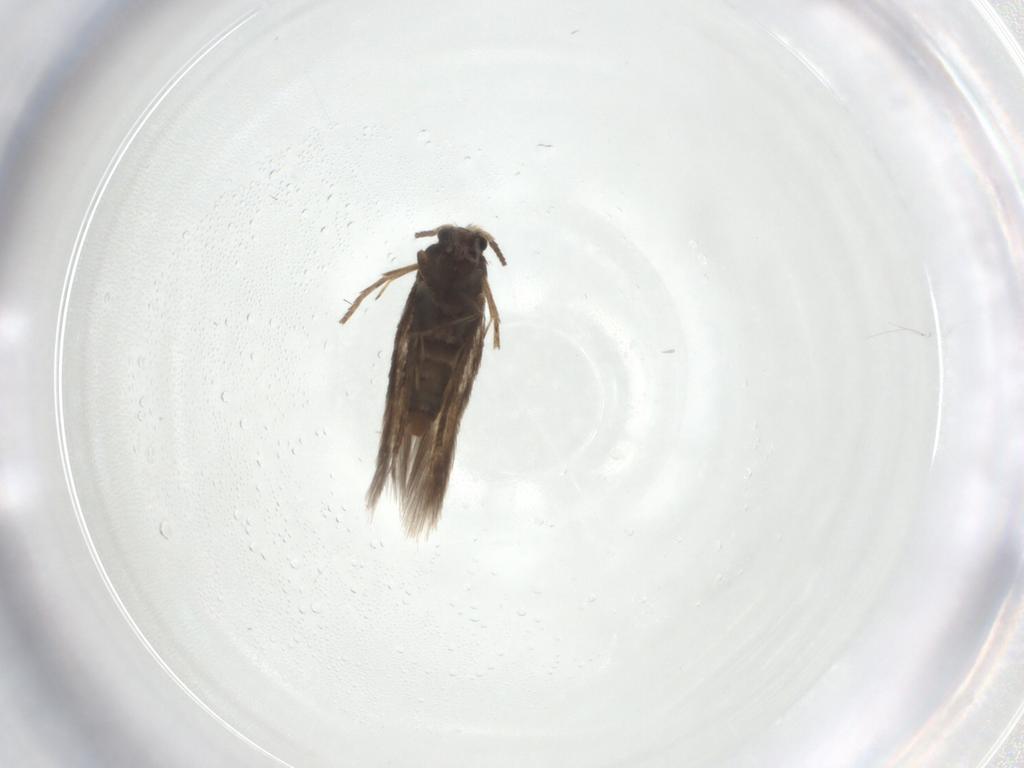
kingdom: Animalia
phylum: Arthropoda
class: Insecta
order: Lepidoptera
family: Nepticulidae
